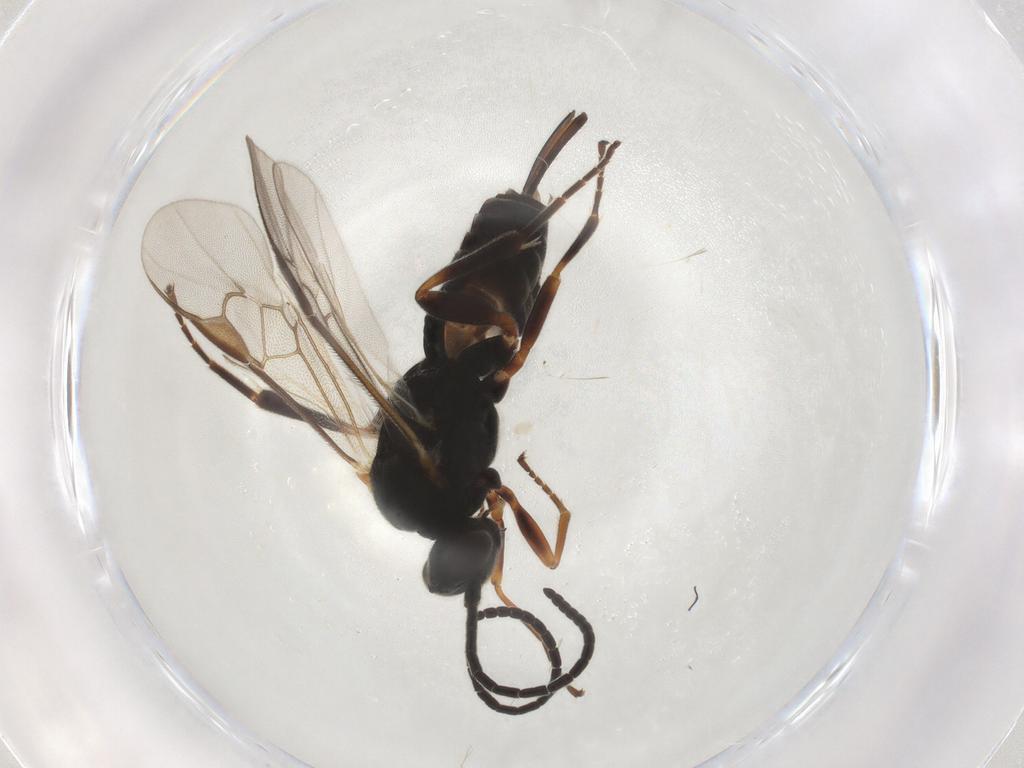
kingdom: Animalia
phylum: Arthropoda
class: Insecta
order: Hymenoptera
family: Braconidae
